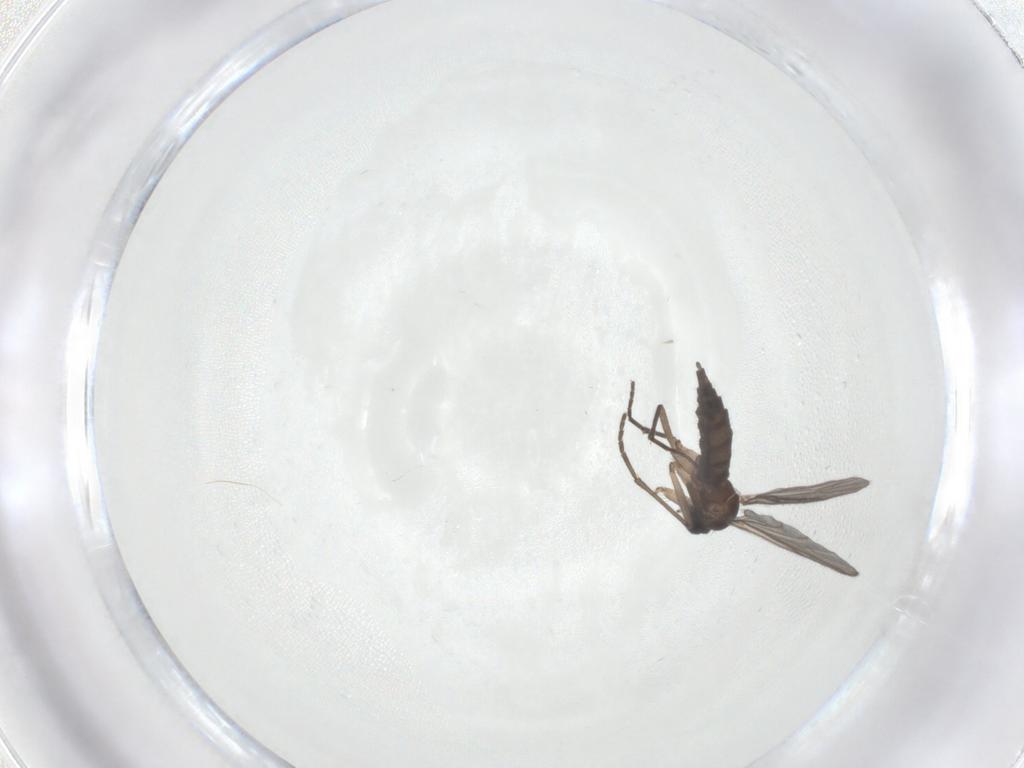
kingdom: Animalia
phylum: Arthropoda
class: Insecta
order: Diptera
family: Sciaridae
